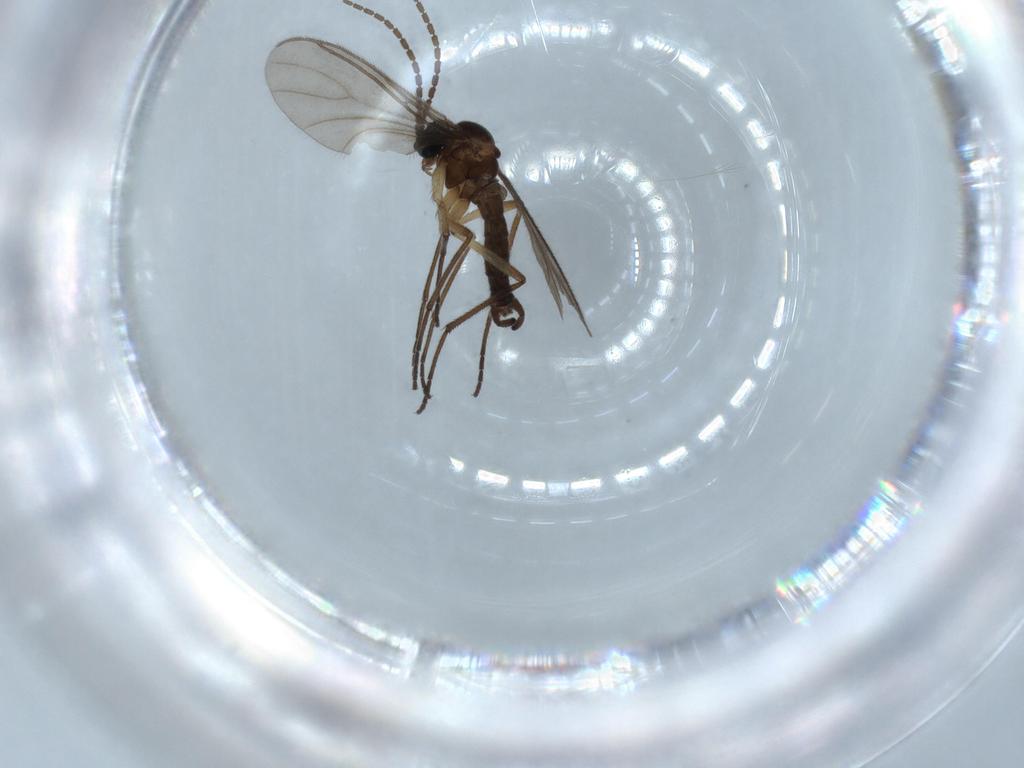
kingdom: Animalia
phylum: Arthropoda
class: Insecta
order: Diptera
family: Sciaridae
